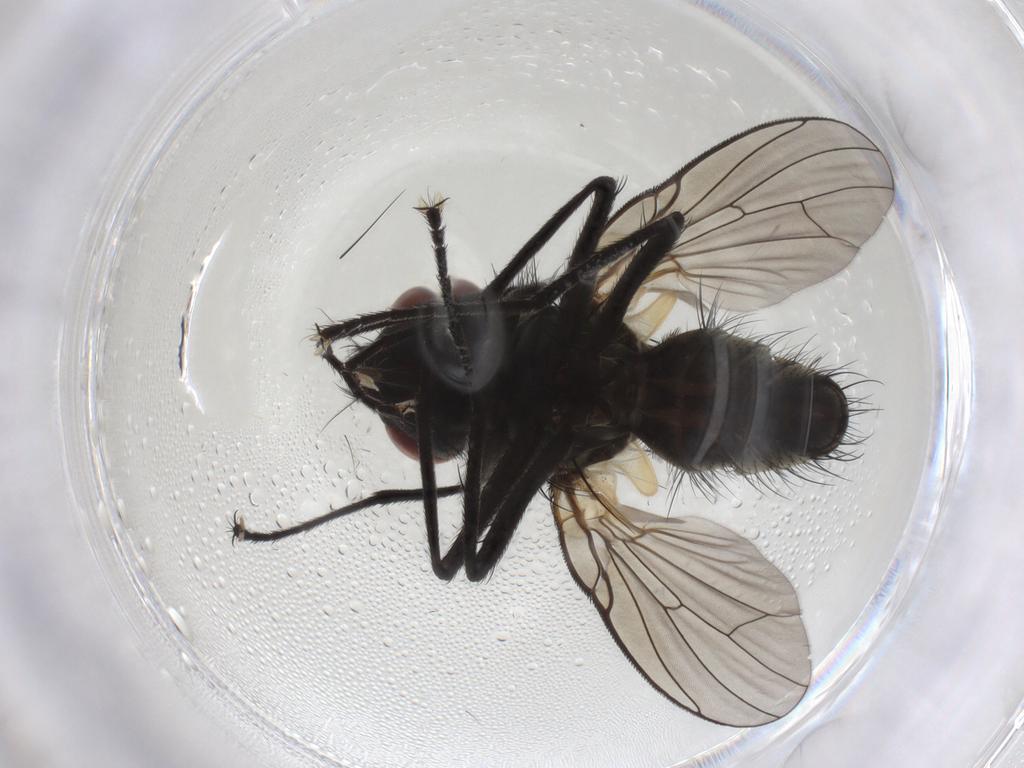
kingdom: Animalia
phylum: Arthropoda
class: Insecta
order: Diptera
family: Muscidae
